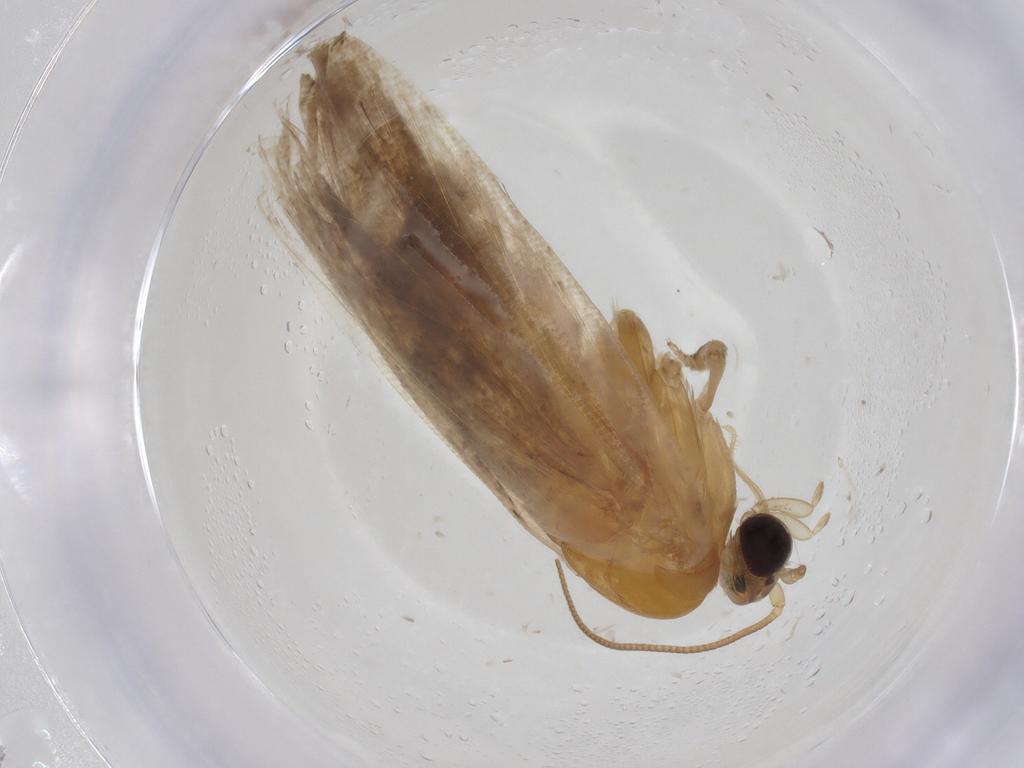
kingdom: Animalia
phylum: Arthropoda
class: Insecta
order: Lepidoptera
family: Tortricidae
